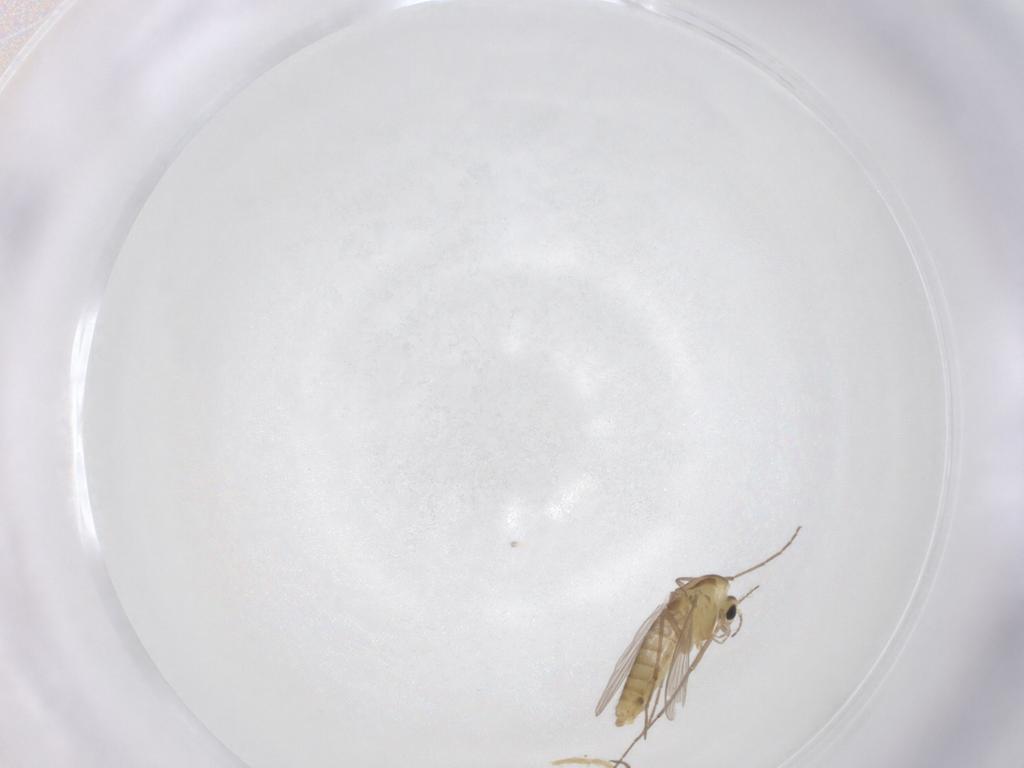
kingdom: Animalia
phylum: Arthropoda
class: Insecta
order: Diptera
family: Chironomidae
